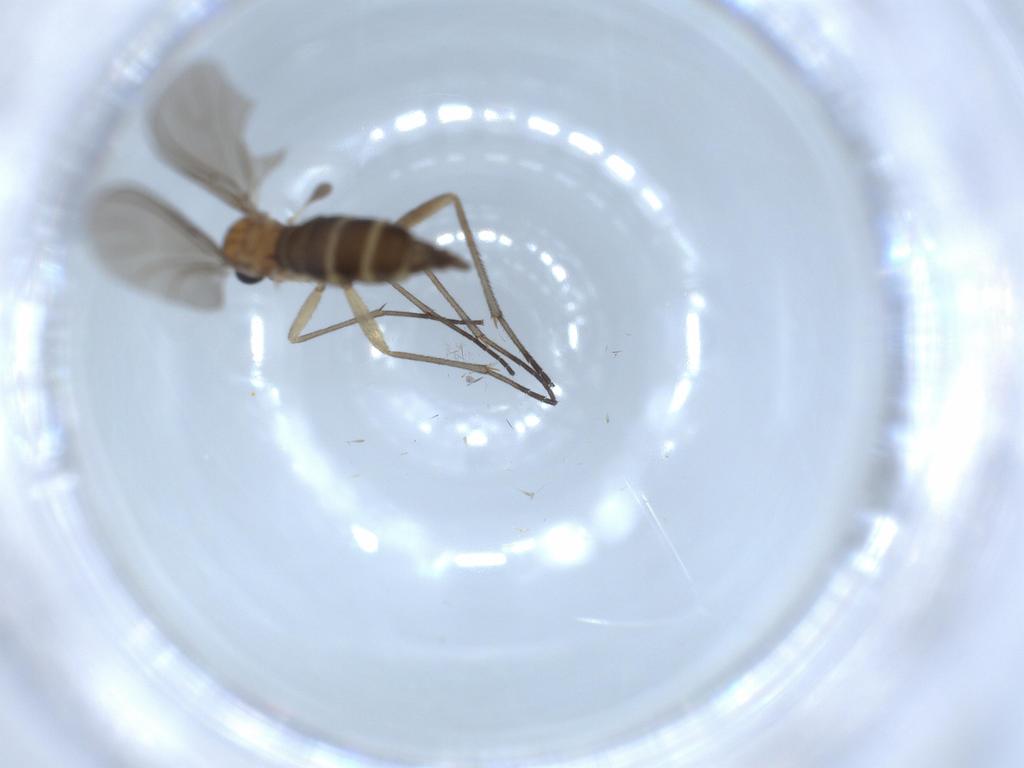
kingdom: Animalia
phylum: Arthropoda
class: Insecta
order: Diptera
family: Sciaridae
